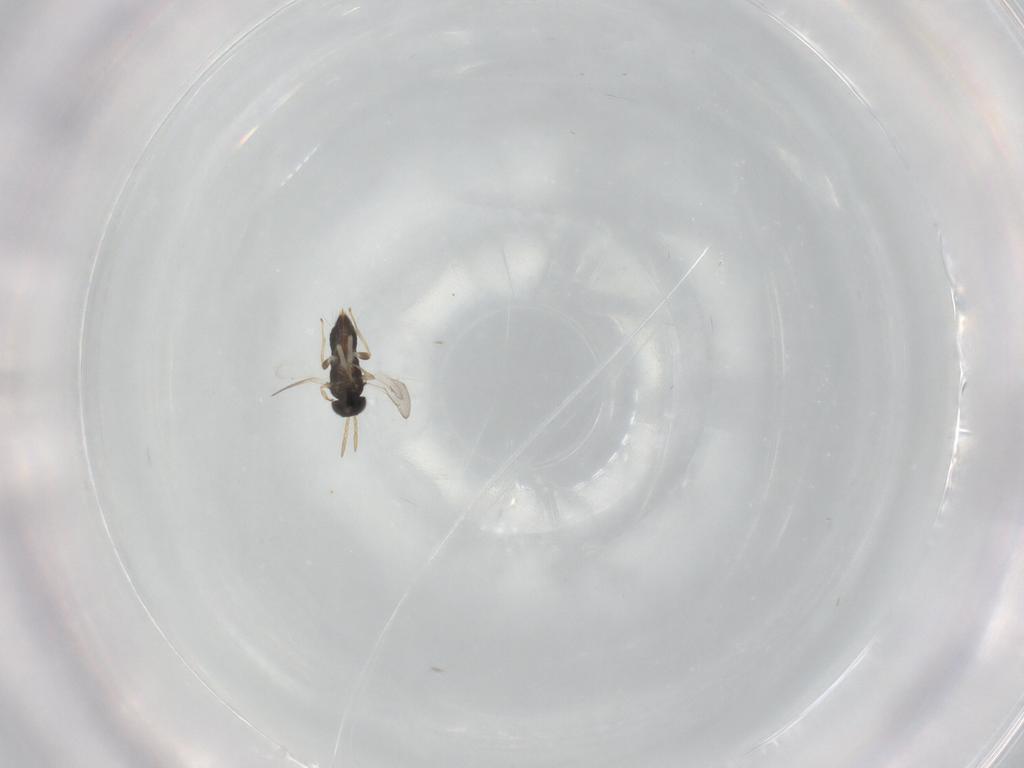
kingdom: Animalia
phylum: Arthropoda
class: Insecta
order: Hymenoptera
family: Aphelinidae
